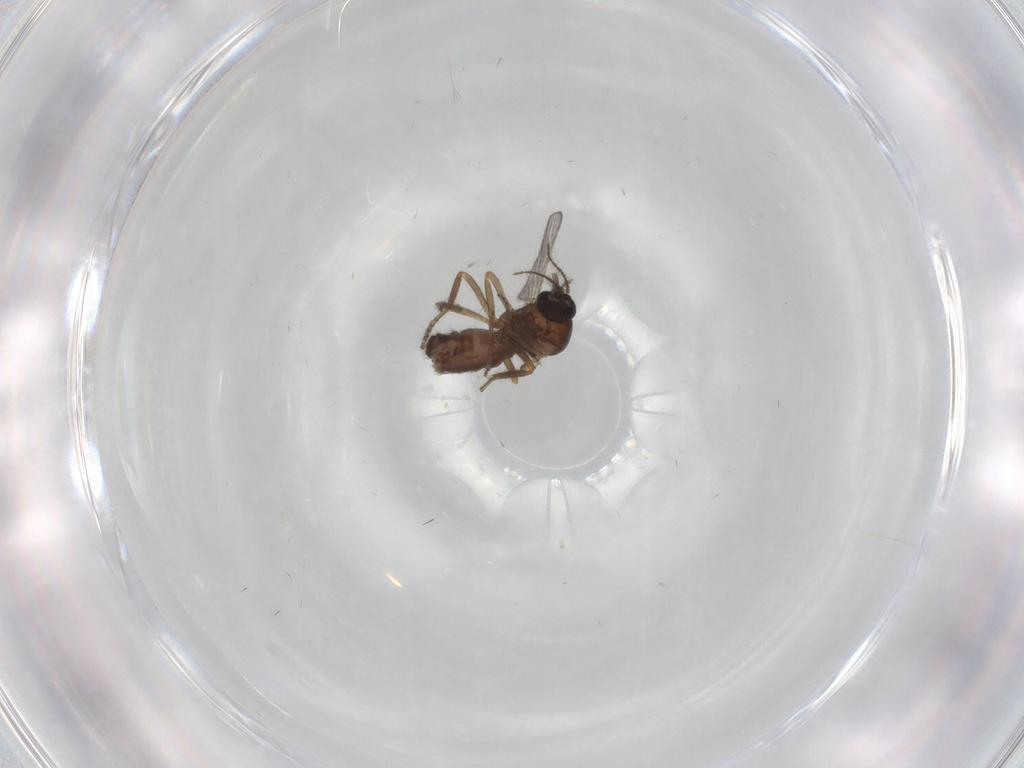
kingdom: Animalia
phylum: Arthropoda
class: Insecta
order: Diptera
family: Ceratopogonidae
